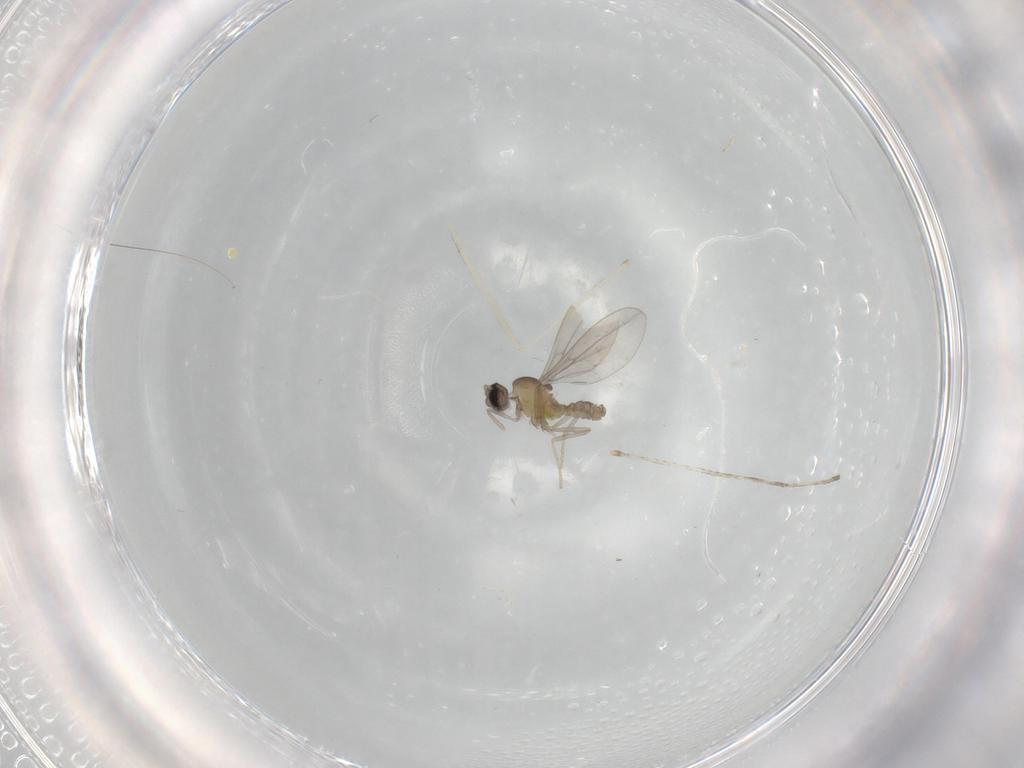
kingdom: Animalia
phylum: Arthropoda
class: Insecta
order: Diptera
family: Cecidomyiidae
